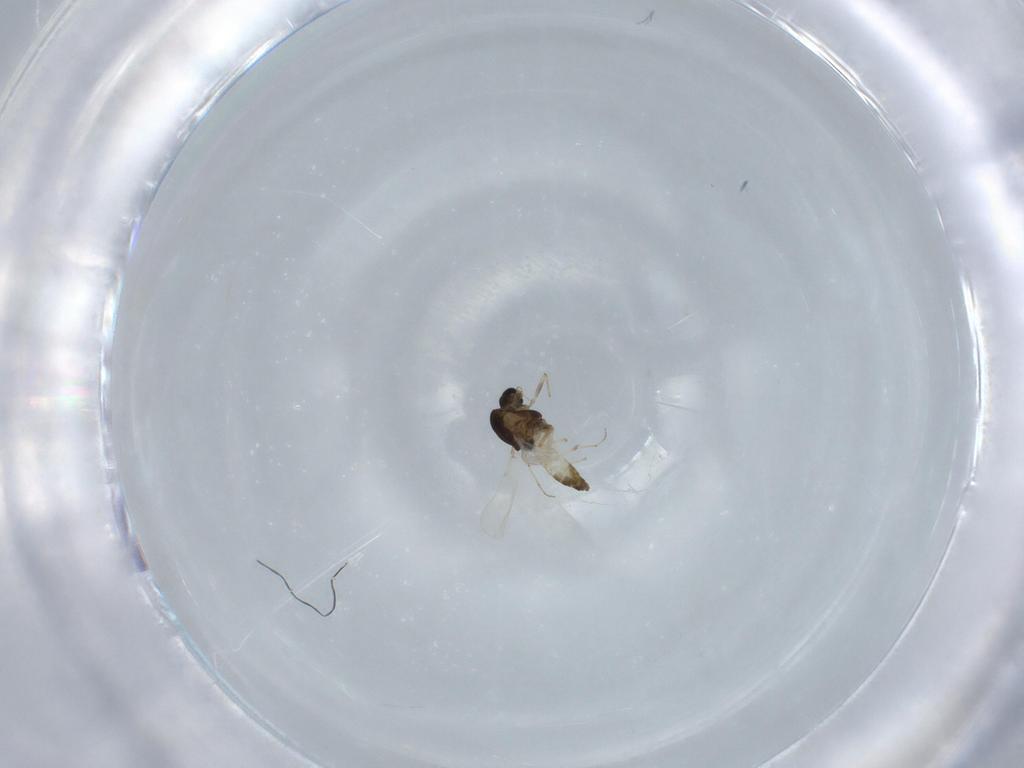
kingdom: Animalia
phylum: Arthropoda
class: Insecta
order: Diptera
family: Chironomidae
